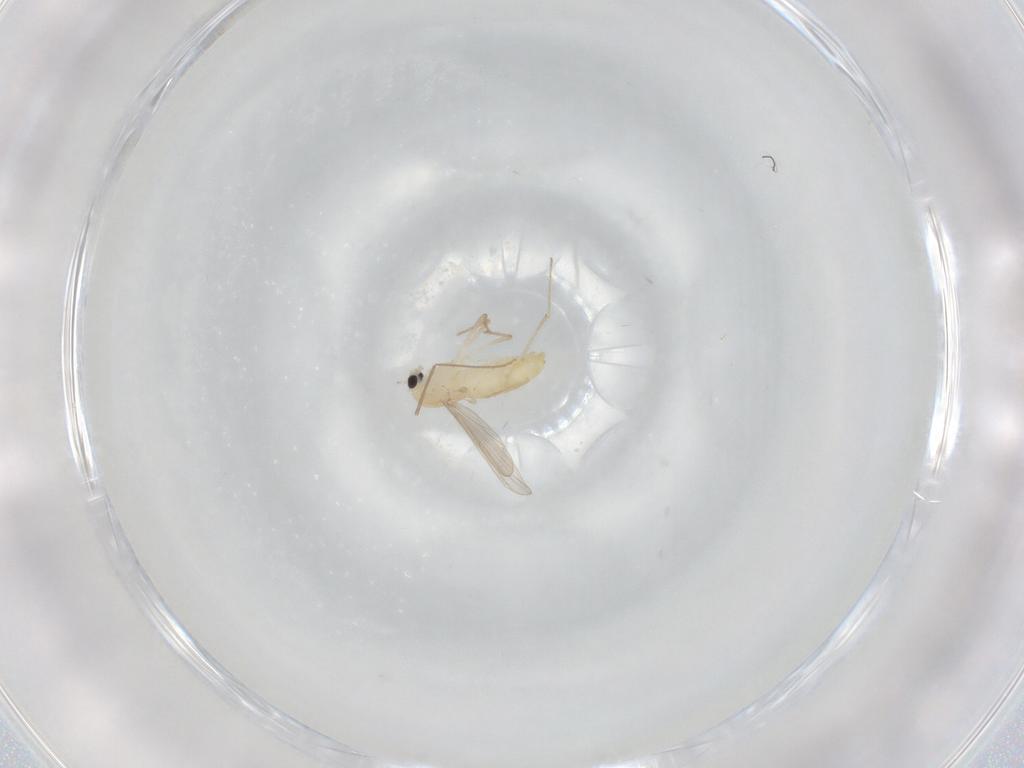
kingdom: Animalia
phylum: Arthropoda
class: Insecta
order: Diptera
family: Chironomidae
